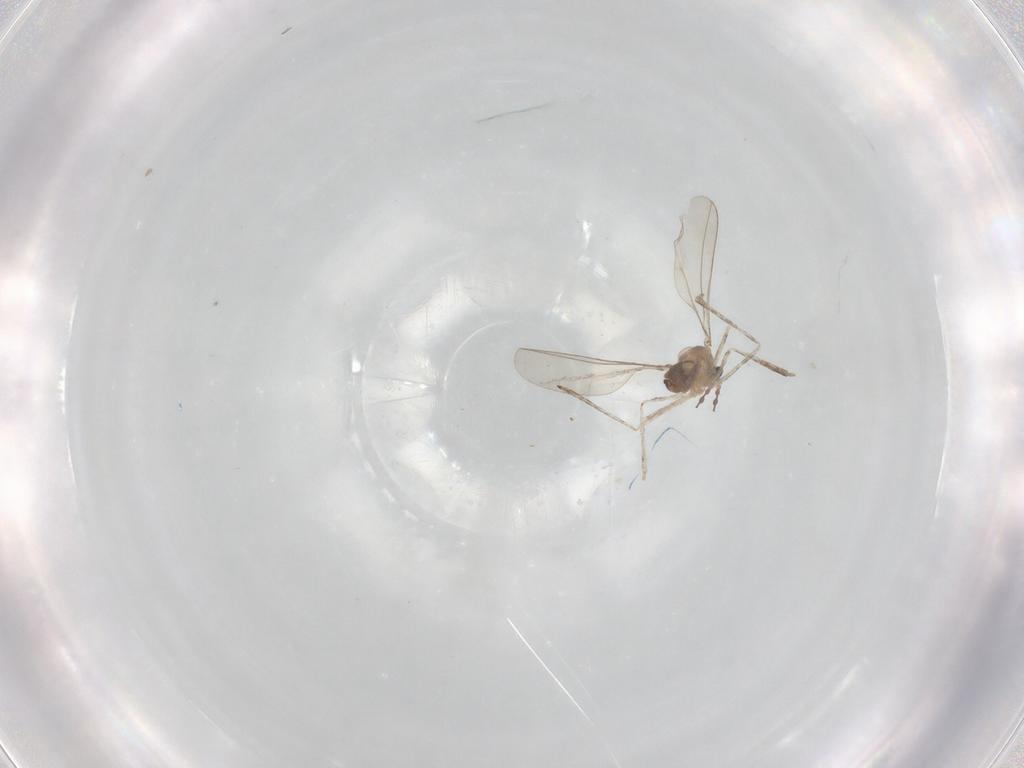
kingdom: Animalia
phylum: Arthropoda
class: Insecta
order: Diptera
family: Cecidomyiidae
